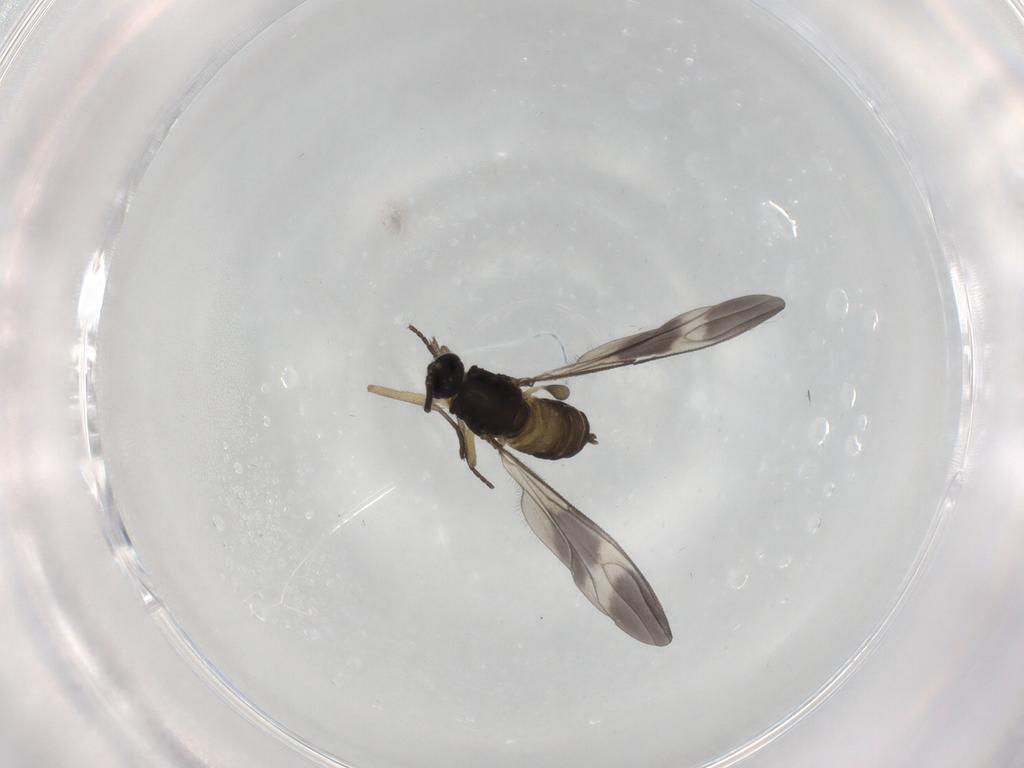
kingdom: Animalia
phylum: Arthropoda
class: Insecta
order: Diptera
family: Sciaridae
